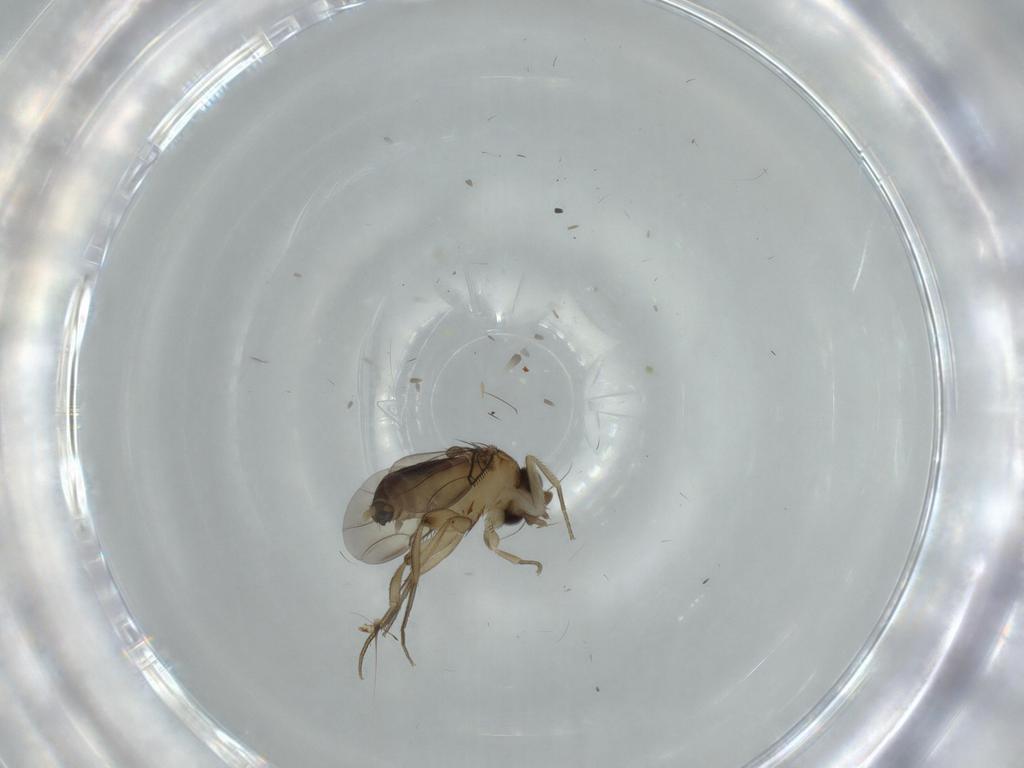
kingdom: Animalia
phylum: Arthropoda
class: Insecta
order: Diptera
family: Phoridae
